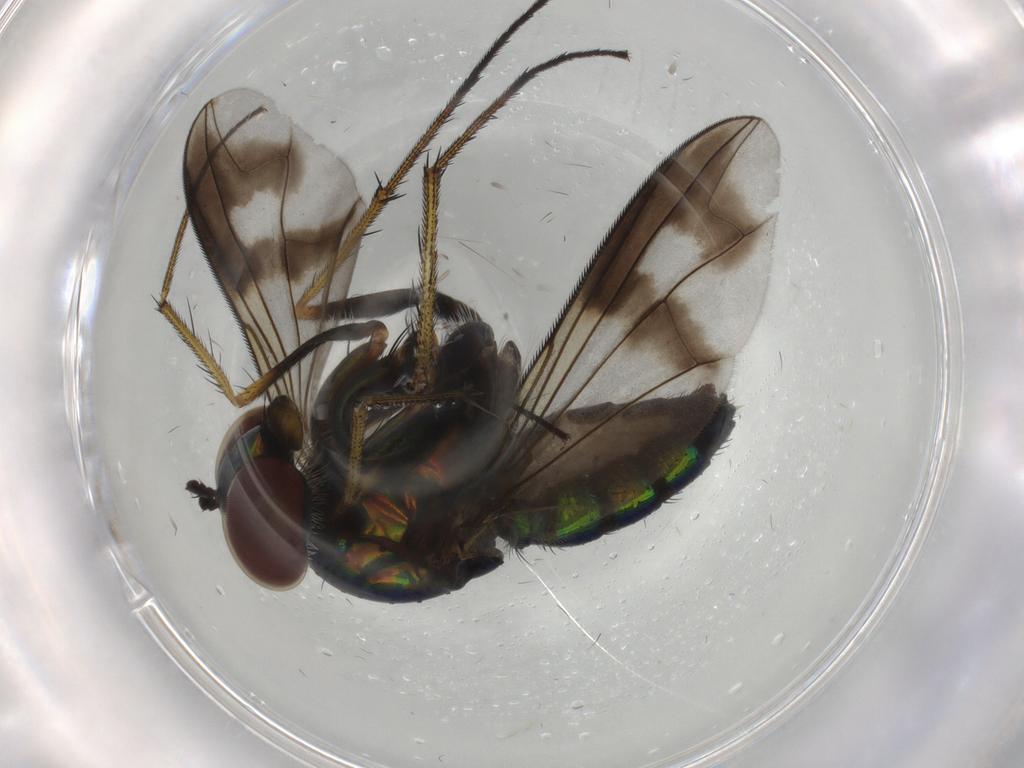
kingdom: Animalia
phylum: Arthropoda
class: Insecta
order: Diptera
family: Dolichopodidae
